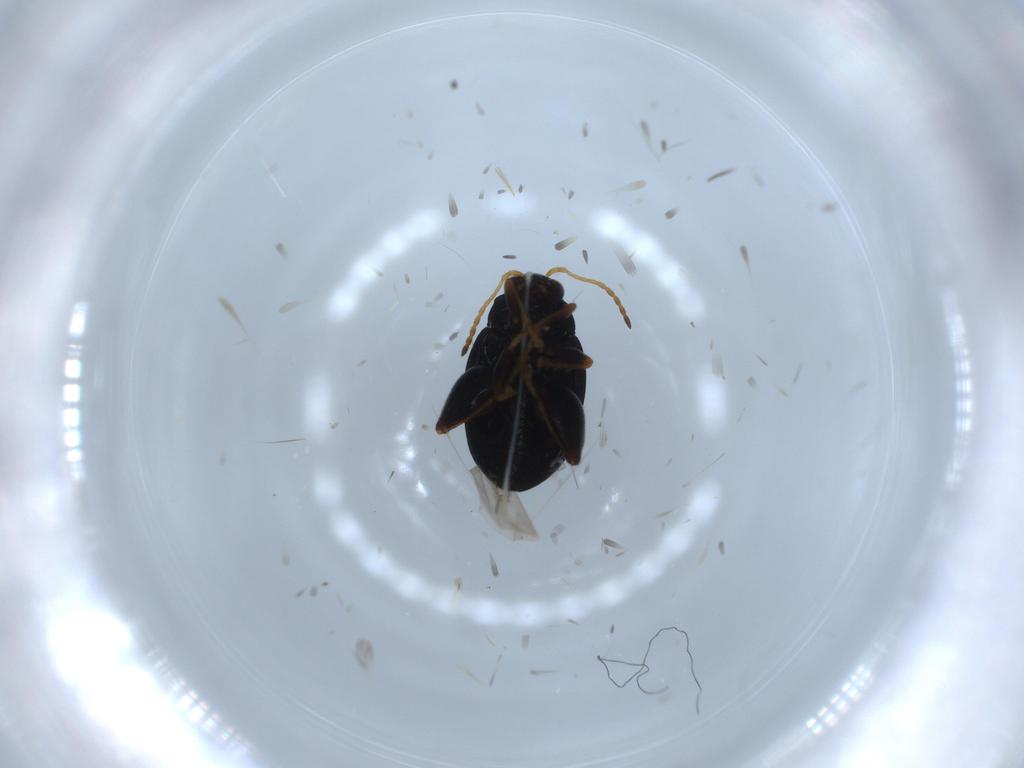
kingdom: Animalia
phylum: Arthropoda
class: Insecta
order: Coleoptera
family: Chrysomelidae
